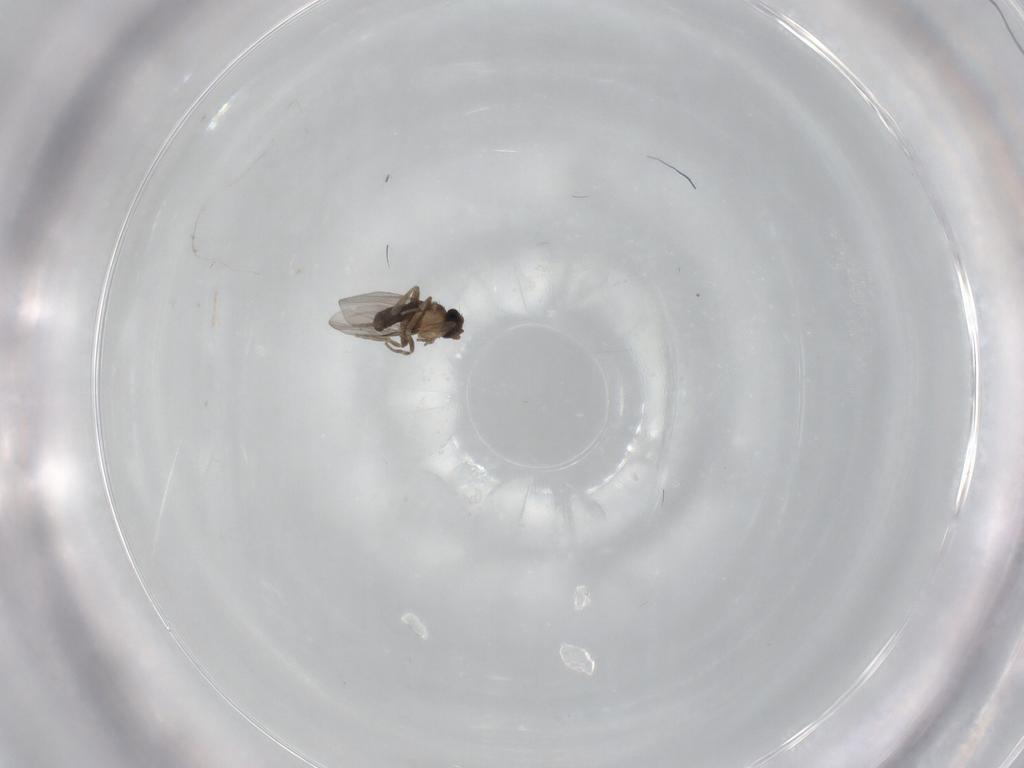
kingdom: Animalia
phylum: Arthropoda
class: Insecta
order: Diptera
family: Phoridae
